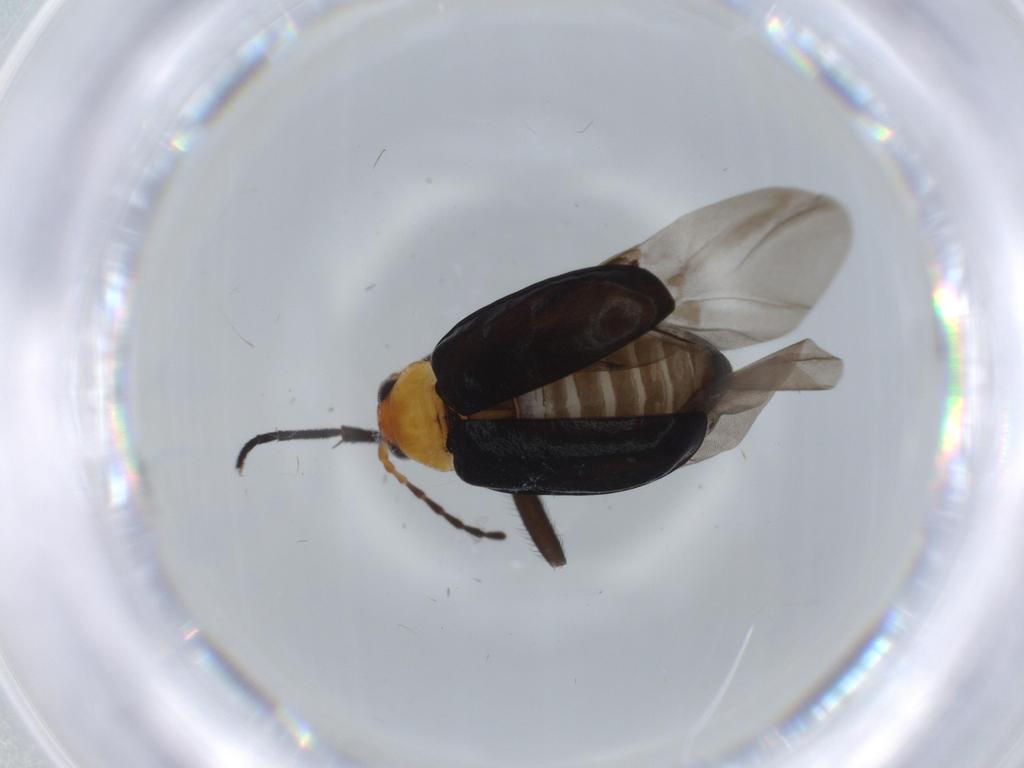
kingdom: Animalia
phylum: Arthropoda
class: Insecta
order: Coleoptera
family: Chrysomelidae
